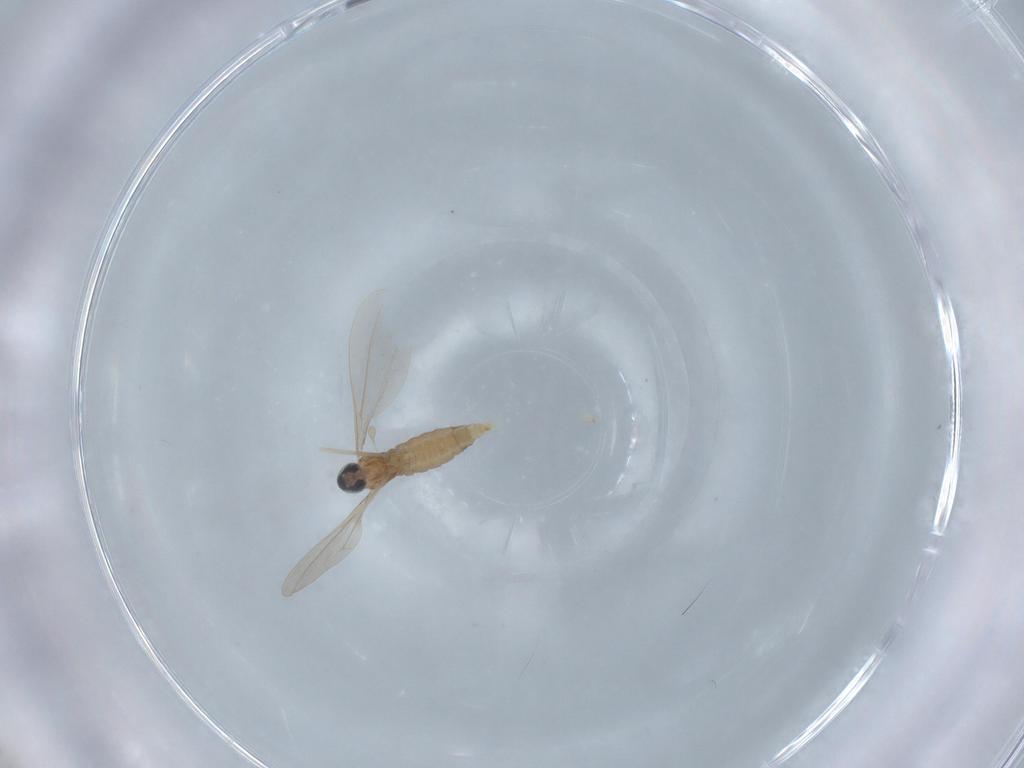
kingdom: Animalia
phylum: Arthropoda
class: Insecta
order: Diptera
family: Cecidomyiidae
